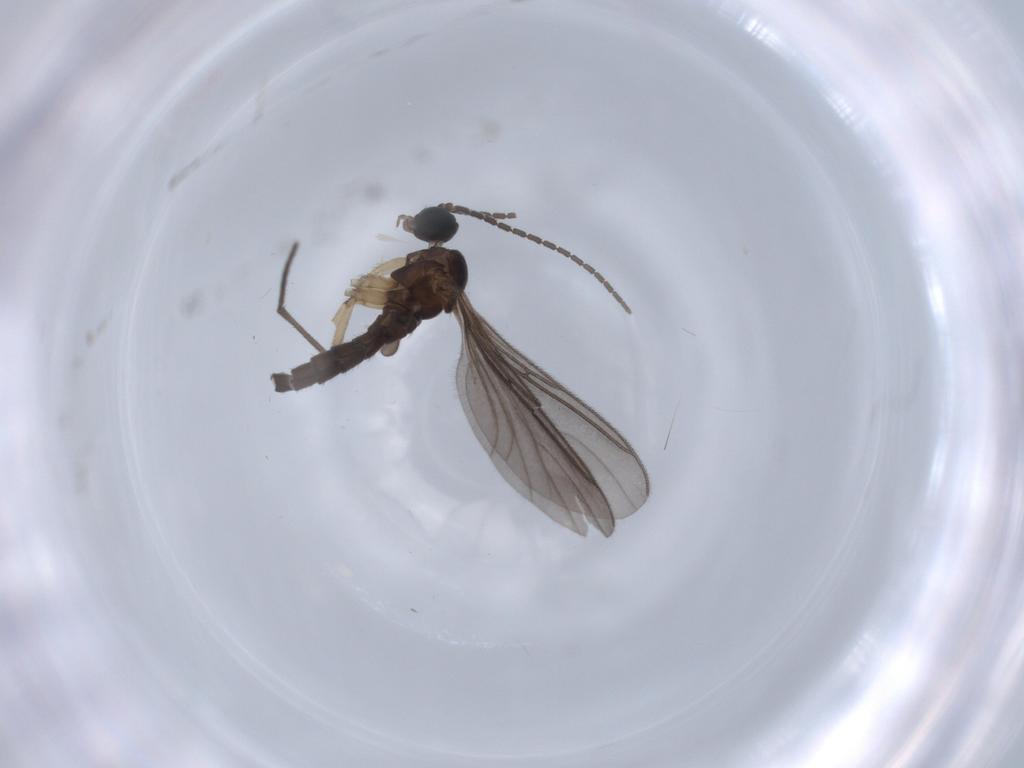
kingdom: Animalia
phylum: Arthropoda
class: Insecta
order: Diptera
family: Sciaridae
